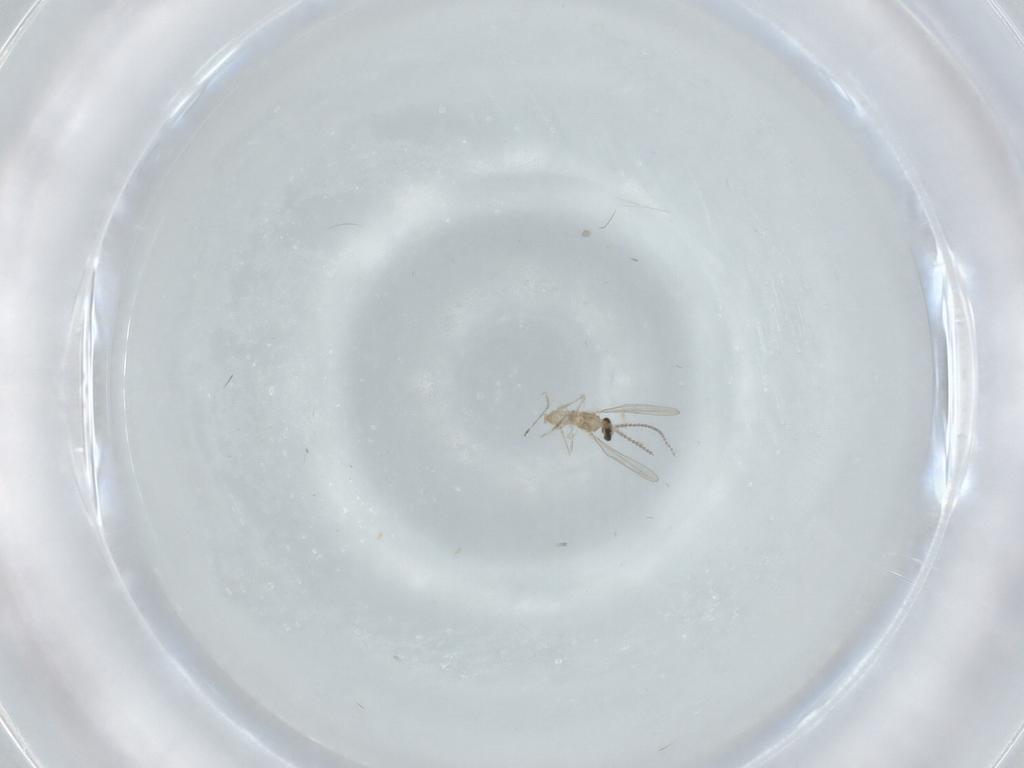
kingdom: Animalia
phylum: Arthropoda
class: Insecta
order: Diptera
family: Cecidomyiidae
